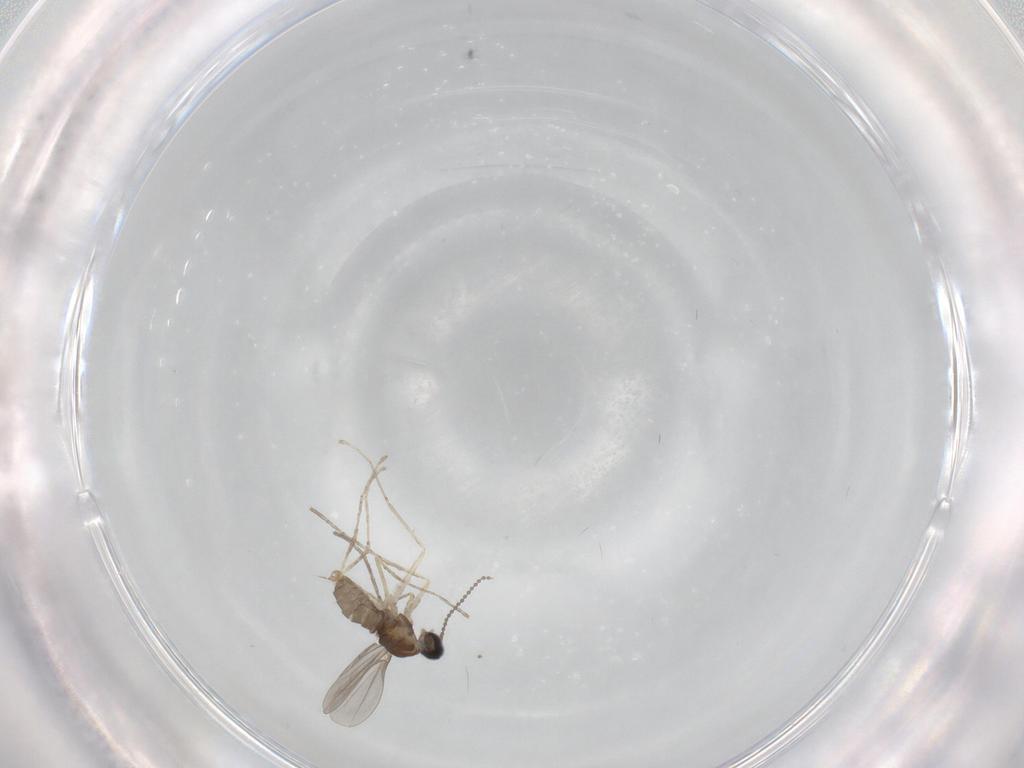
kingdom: Animalia
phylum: Arthropoda
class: Insecta
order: Diptera
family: Cecidomyiidae
